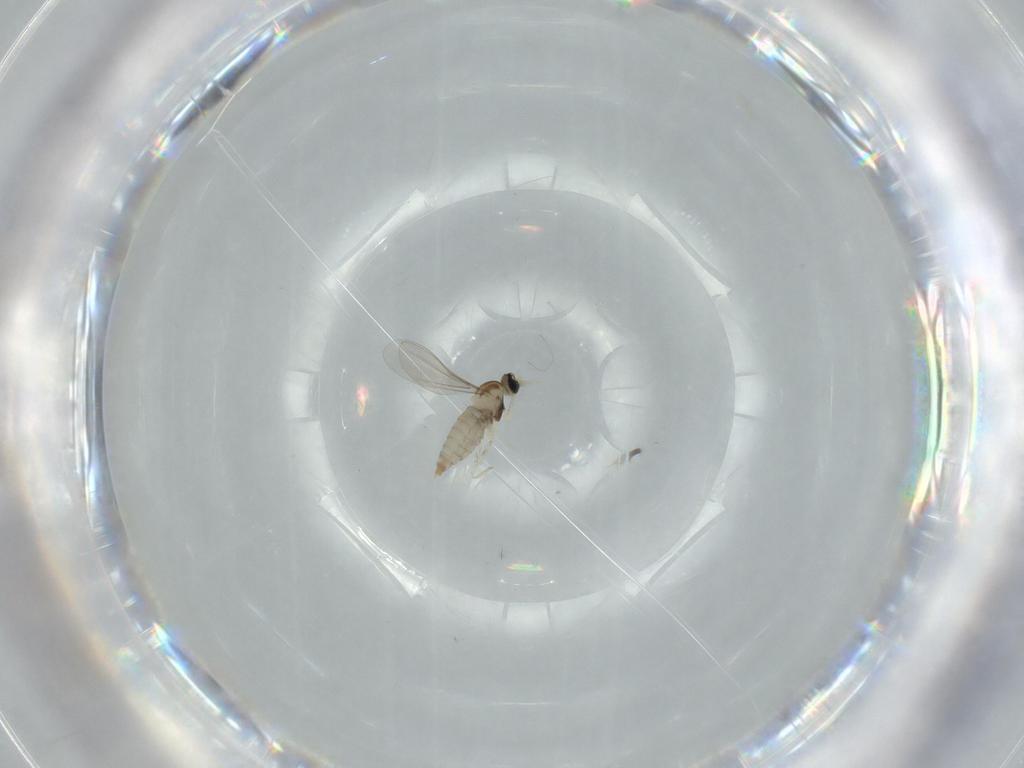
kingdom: Animalia
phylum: Arthropoda
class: Insecta
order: Diptera
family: Cecidomyiidae
